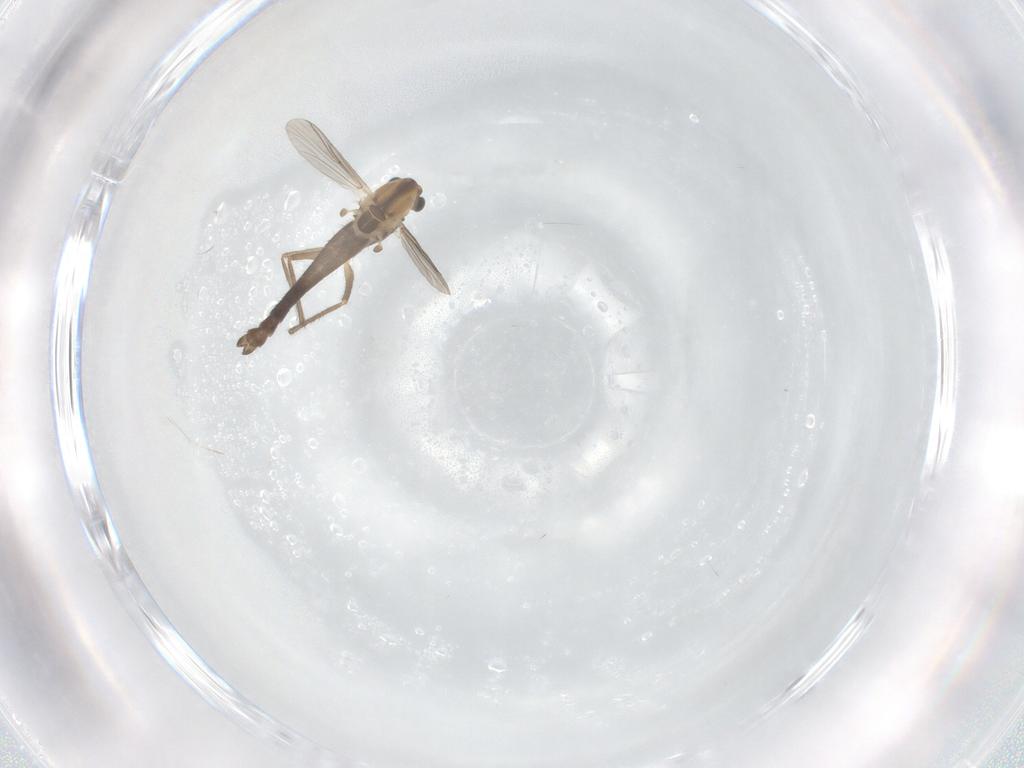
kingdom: Animalia
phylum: Arthropoda
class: Insecta
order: Diptera
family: Chironomidae
